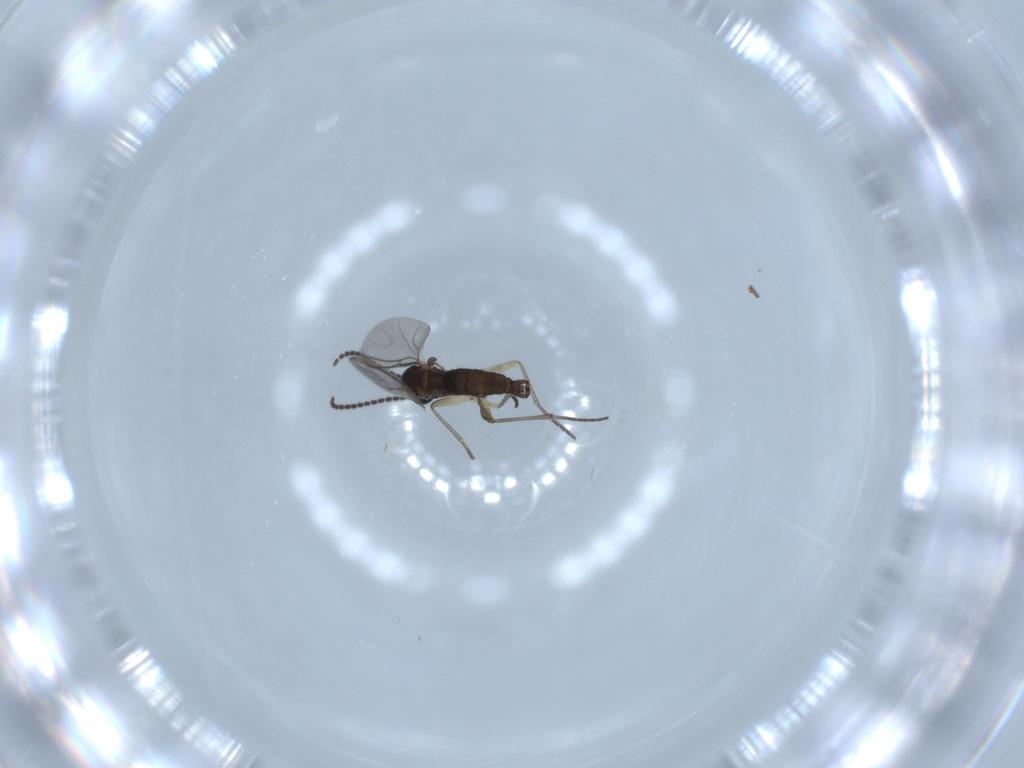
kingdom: Animalia
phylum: Arthropoda
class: Insecta
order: Diptera
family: Sciaridae
